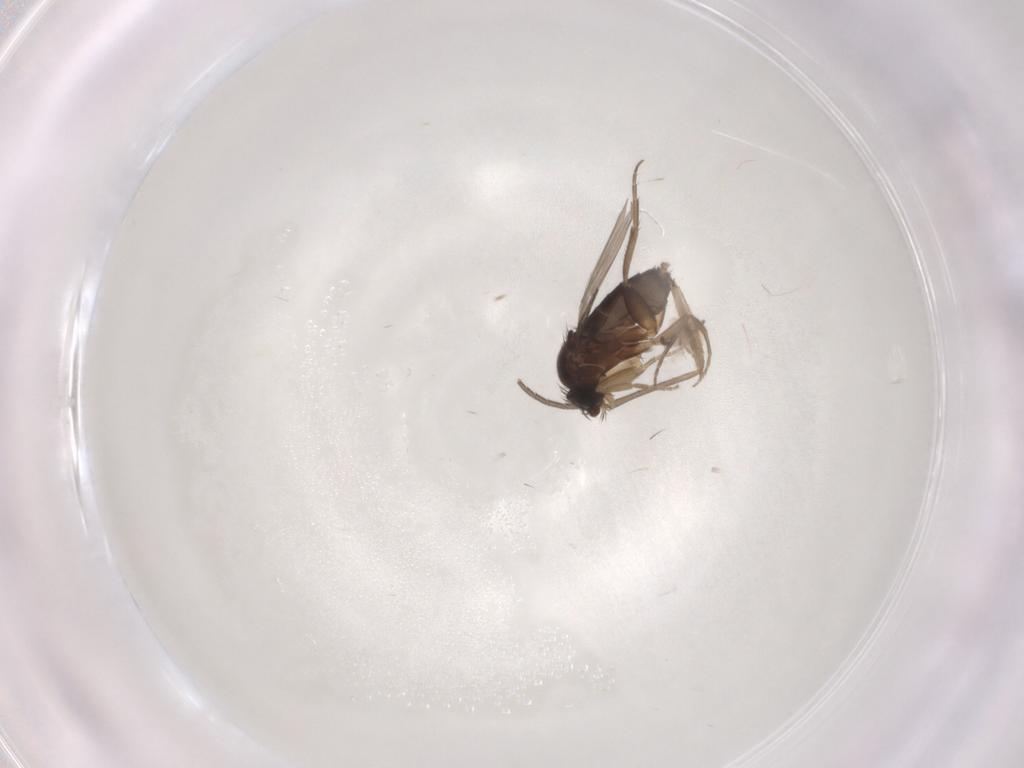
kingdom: Animalia
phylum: Arthropoda
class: Insecta
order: Diptera
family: Sciaridae
